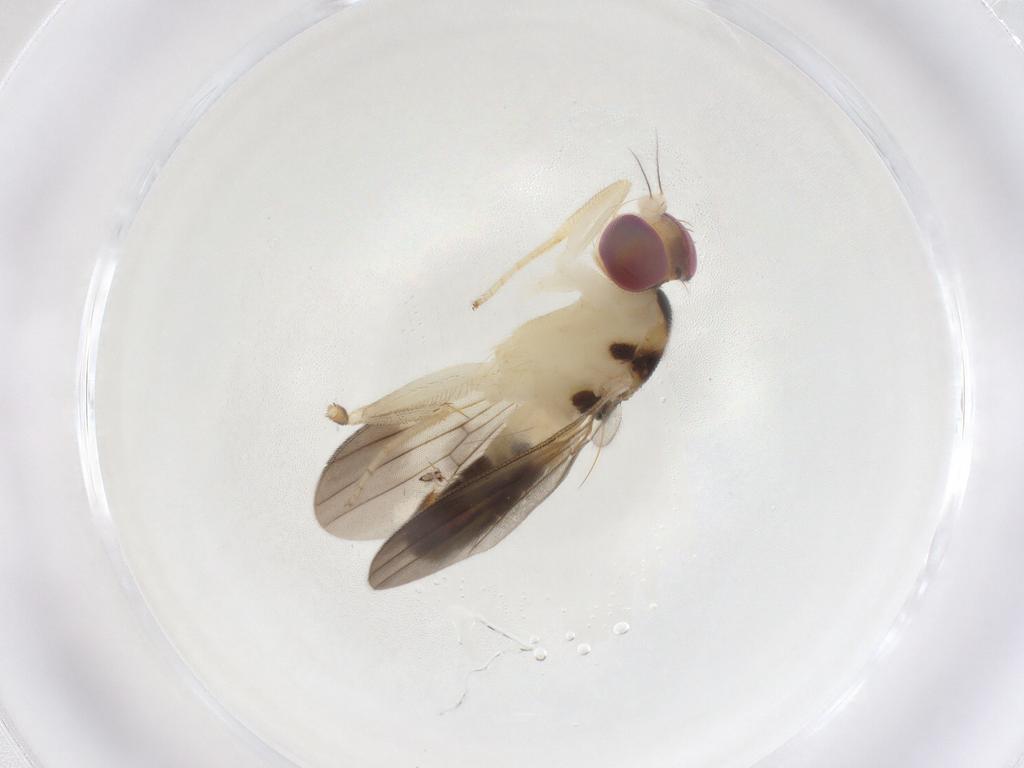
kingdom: Animalia
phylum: Arthropoda
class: Insecta
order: Diptera
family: Clusiidae
